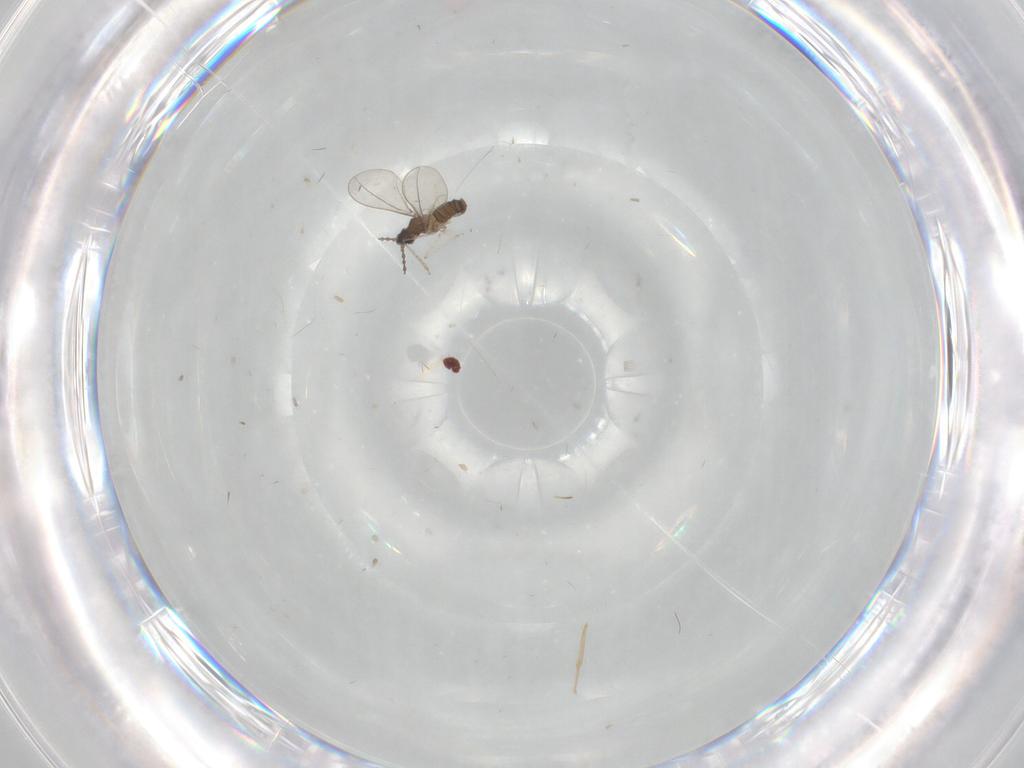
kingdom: Animalia
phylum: Arthropoda
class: Insecta
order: Diptera
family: Cecidomyiidae
